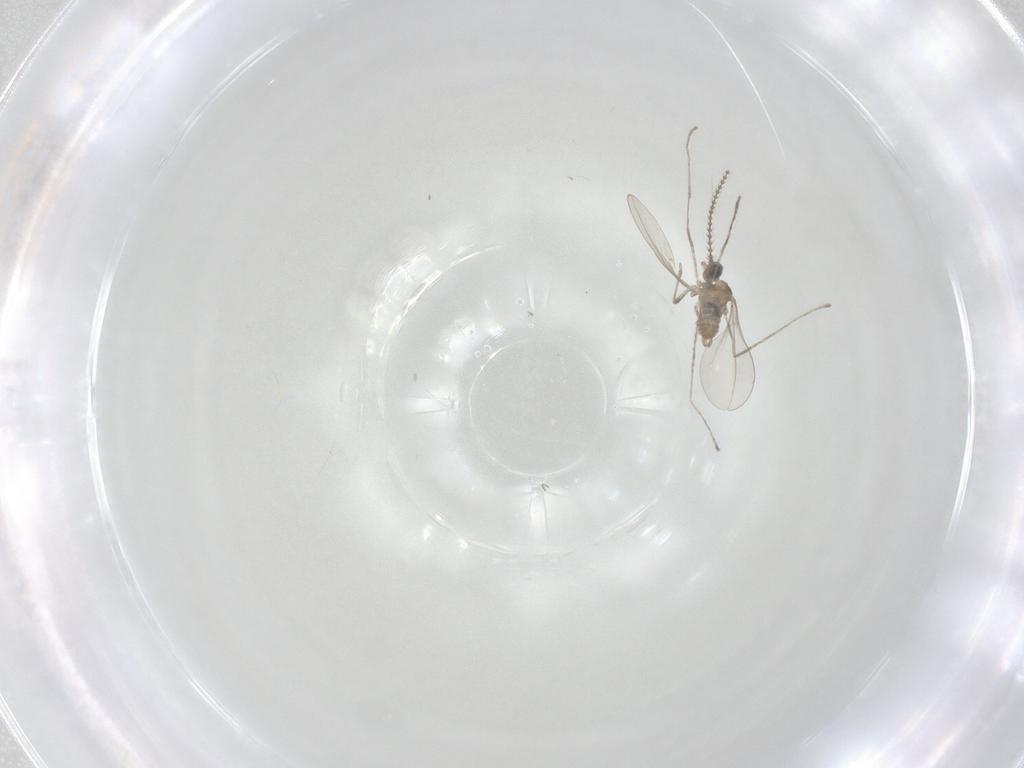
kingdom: Animalia
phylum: Arthropoda
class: Insecta
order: Diptera
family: Cecidomyiidae
